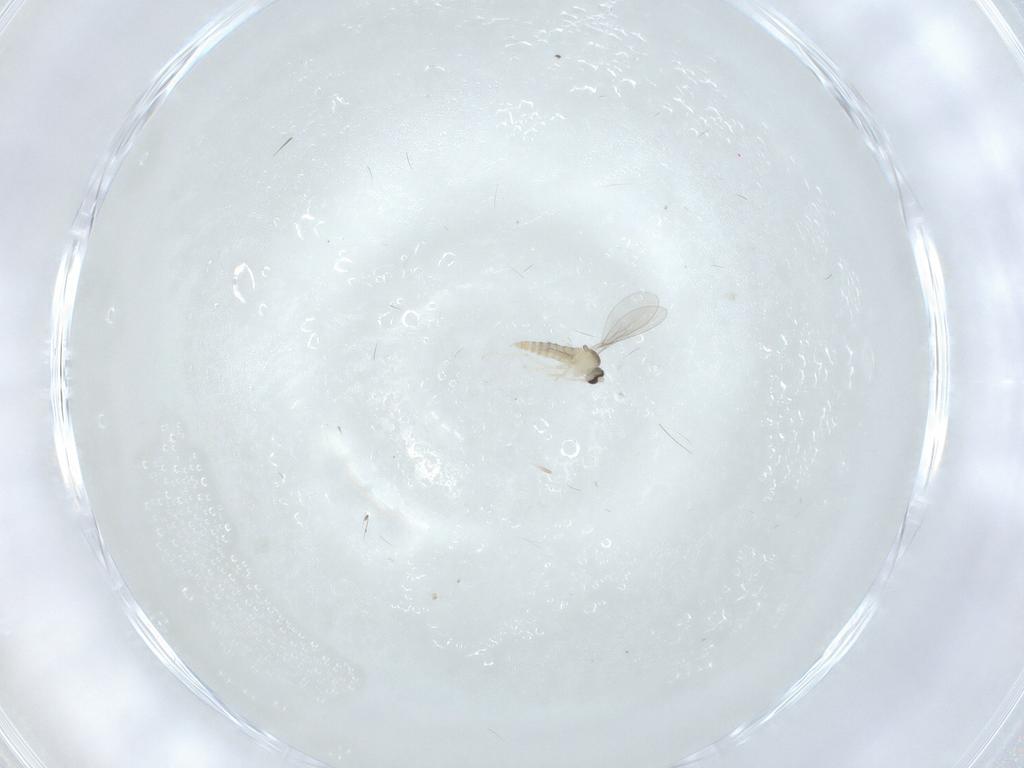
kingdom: Animalia
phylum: Arthropoda
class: Insecta
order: Diptera
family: Cecidomyiidae
